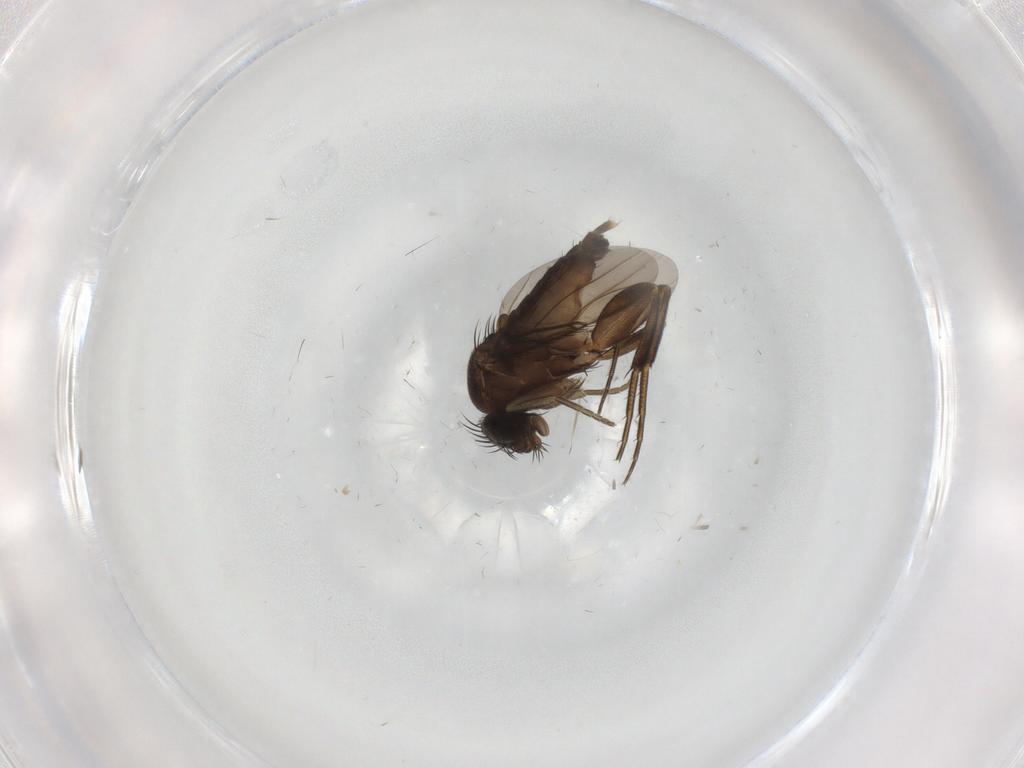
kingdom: Animalia
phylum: Arthropoda
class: Insecta
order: Diptera
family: Phoridae
